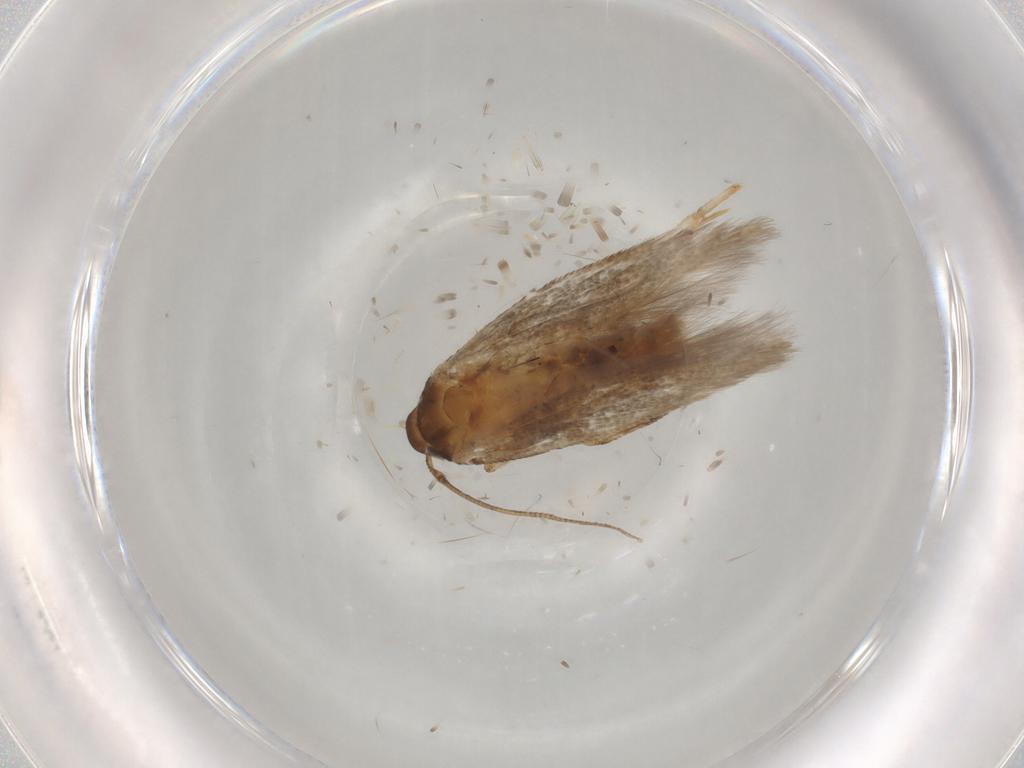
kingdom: Animalia
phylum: Arthropoda
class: Insecta
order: Lepidoptera
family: Cosmopterigidae
